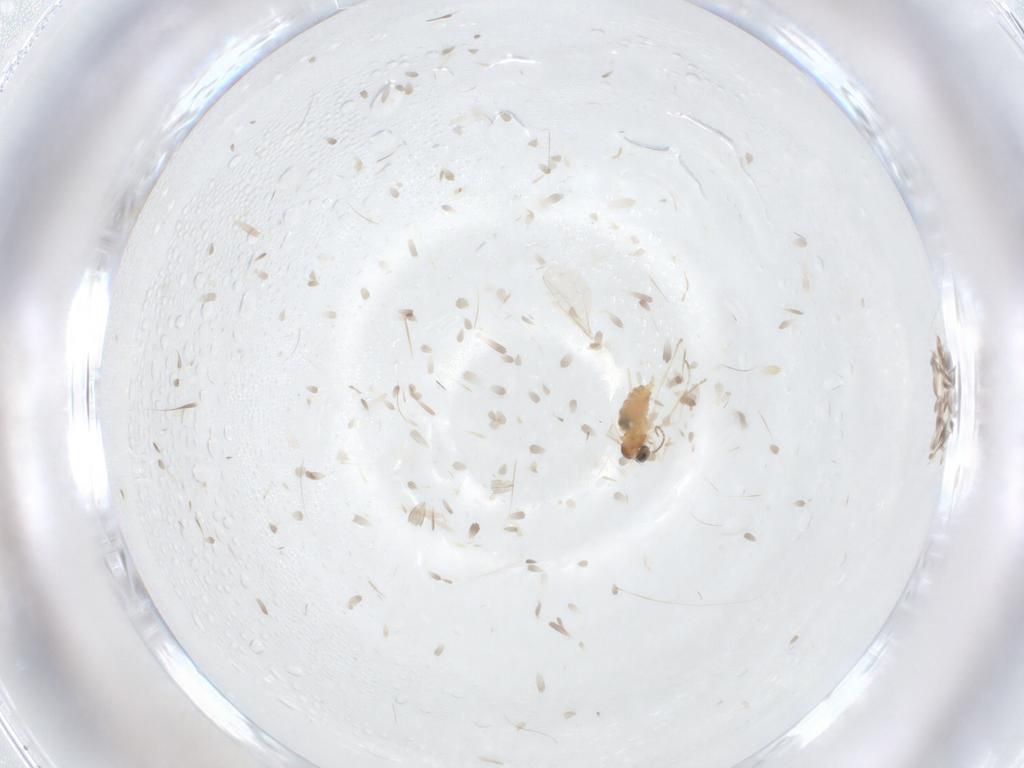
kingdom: Animalia
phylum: Arthropoda
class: Insecta
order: Diptera
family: Cecidomyiidae
